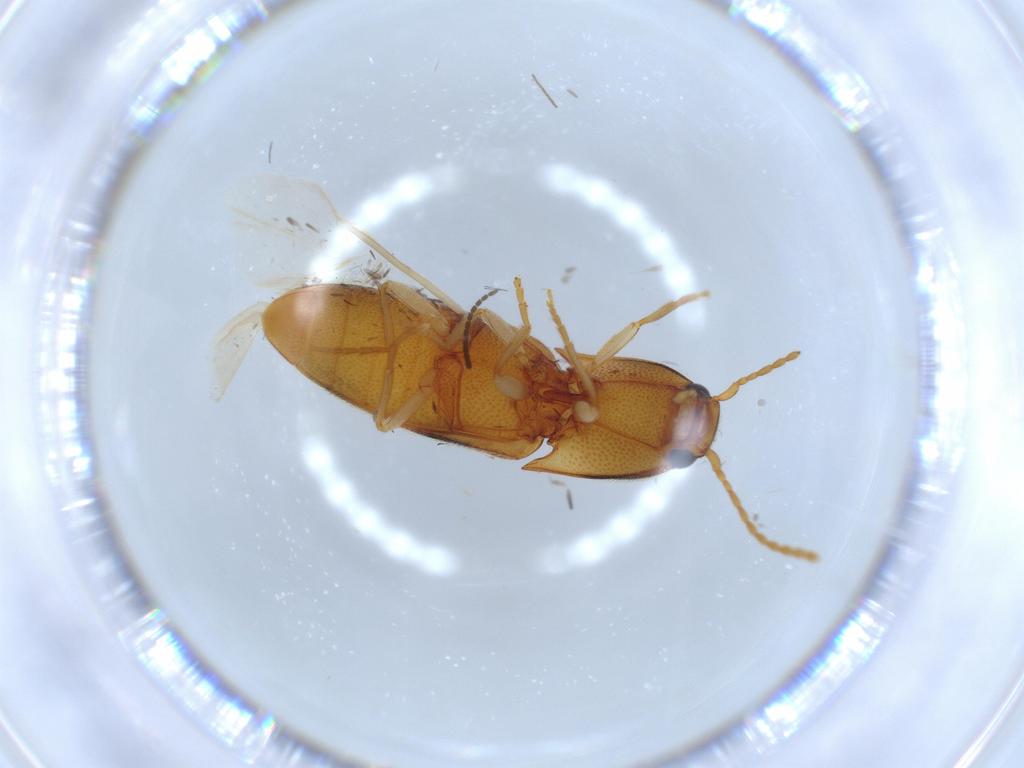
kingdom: Animalia
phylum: Arthropoda
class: Insecta
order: Coleoptera
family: Elateridae
